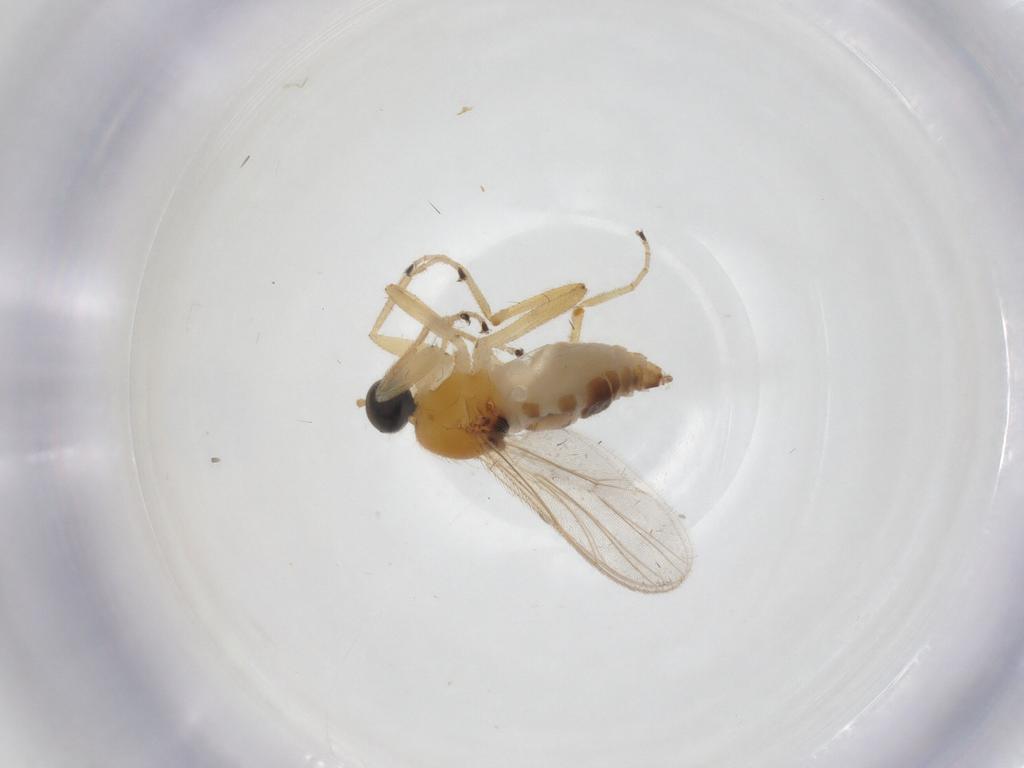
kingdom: Animalia
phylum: Arthropoda
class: Insecta
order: Diptera
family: Hybotidae
